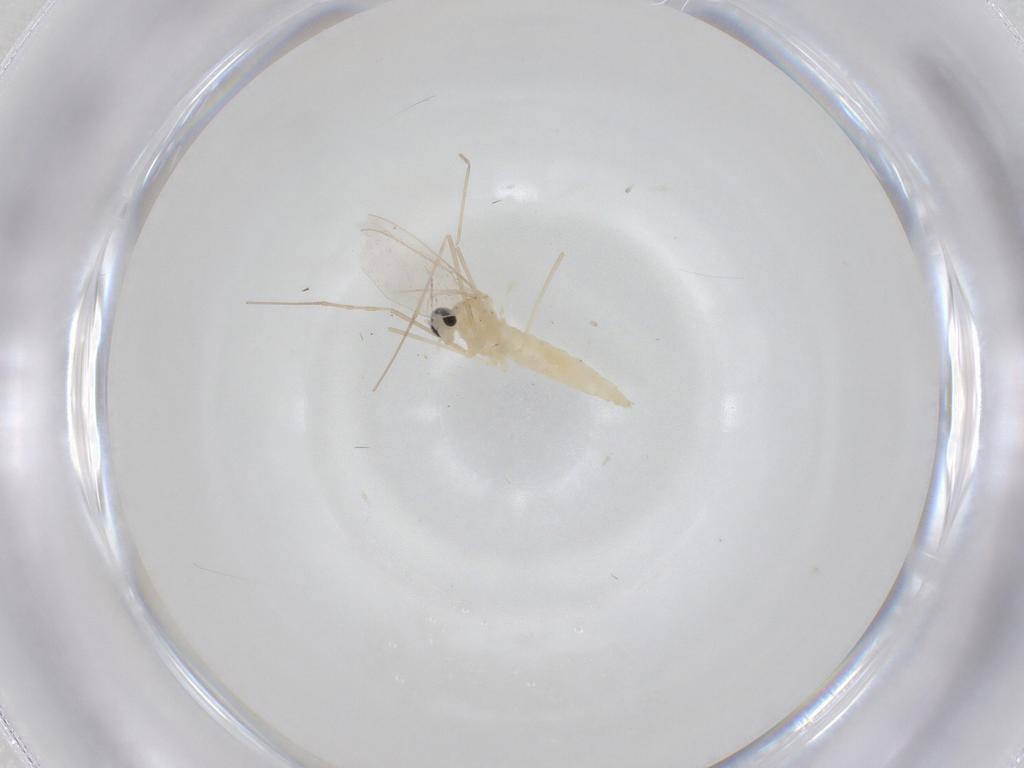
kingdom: Animalia
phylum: Arthropoda
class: Insecta
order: Diptera
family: Cecidomyiidae
